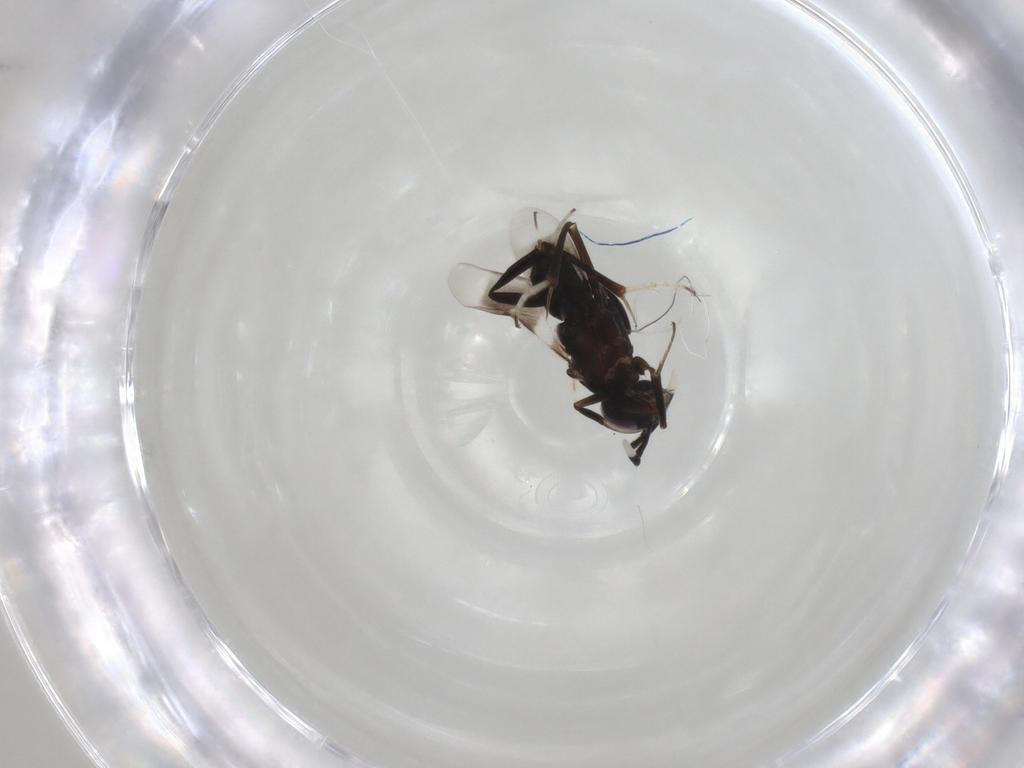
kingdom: Animalia
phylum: Arthropoda
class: Insecta
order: Hymenoptera
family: Encyrtidae
